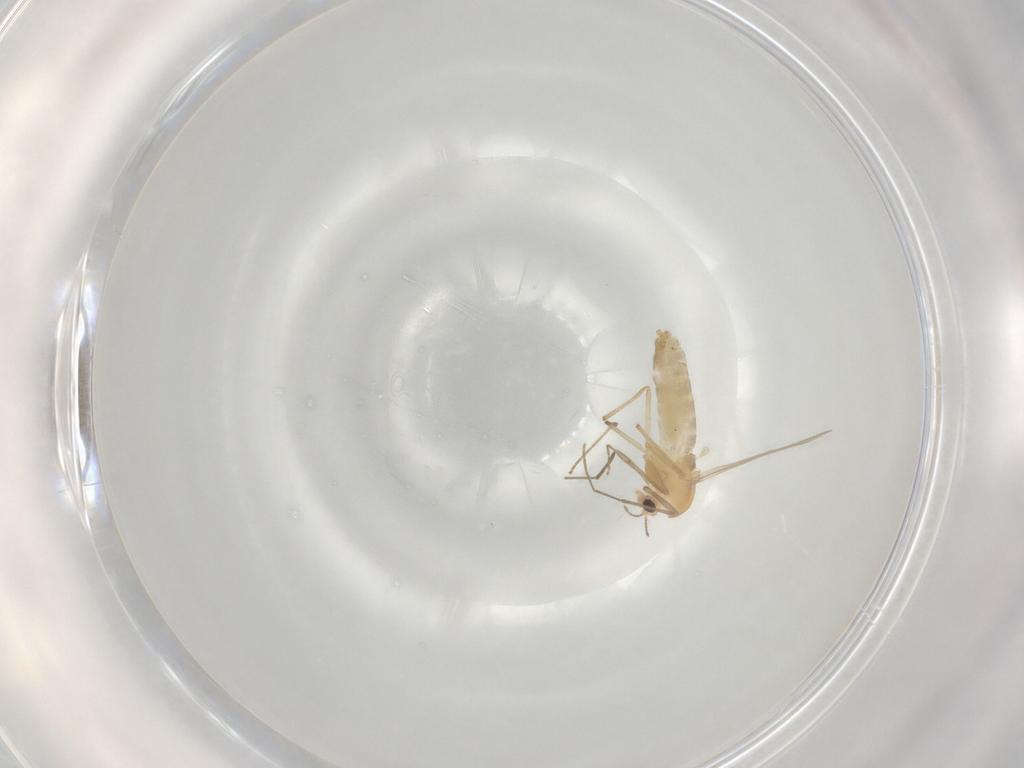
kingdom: Animalia
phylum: Arthropoda
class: Insecta
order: Diptera
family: Chironomidae
